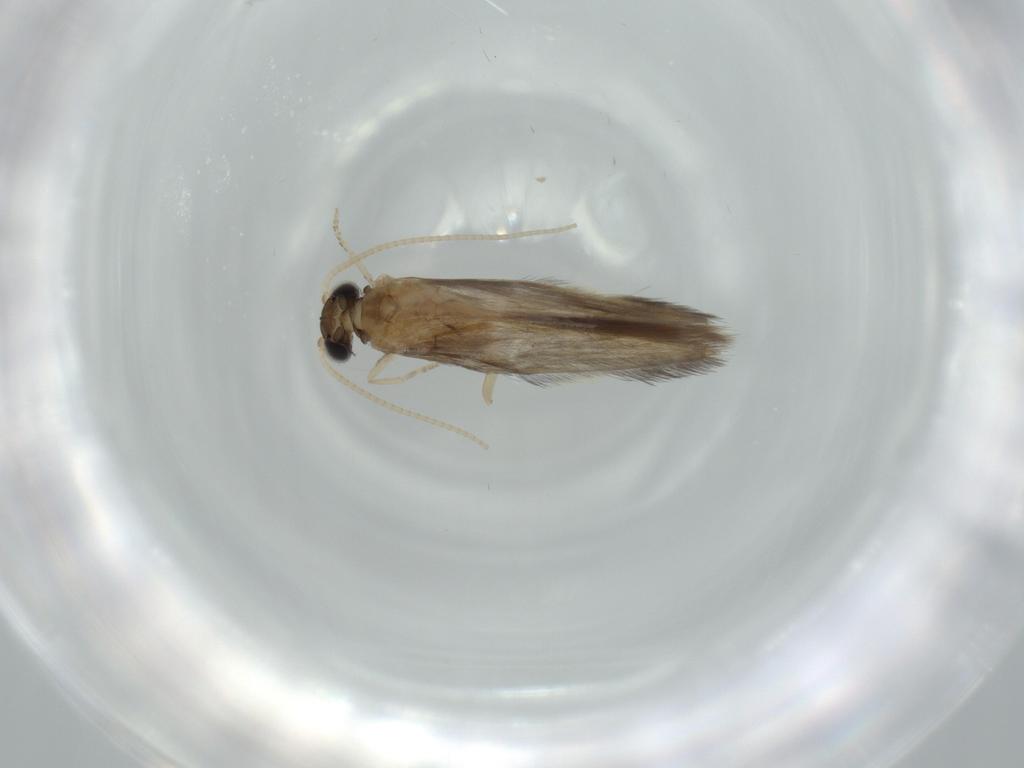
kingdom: Animalia
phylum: Arthropoda
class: Insecta
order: Trichoptera
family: Hydroptilidae
